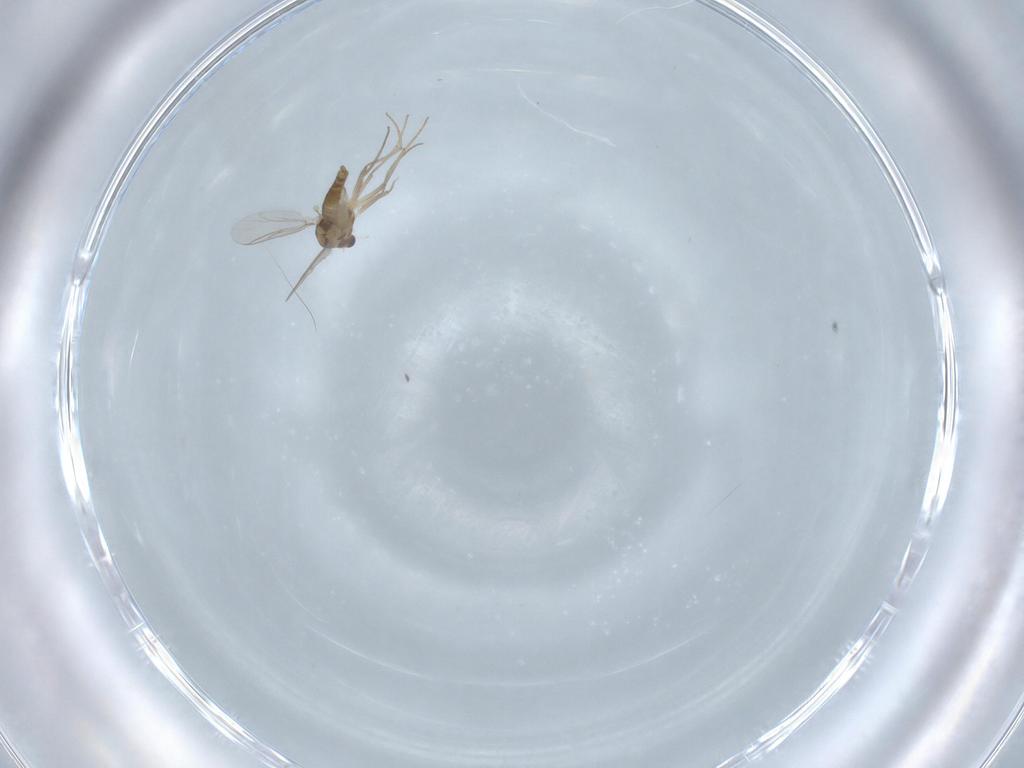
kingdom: Animalia
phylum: Arthropoda
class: Insecta
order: Diptera
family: Chironomidae
